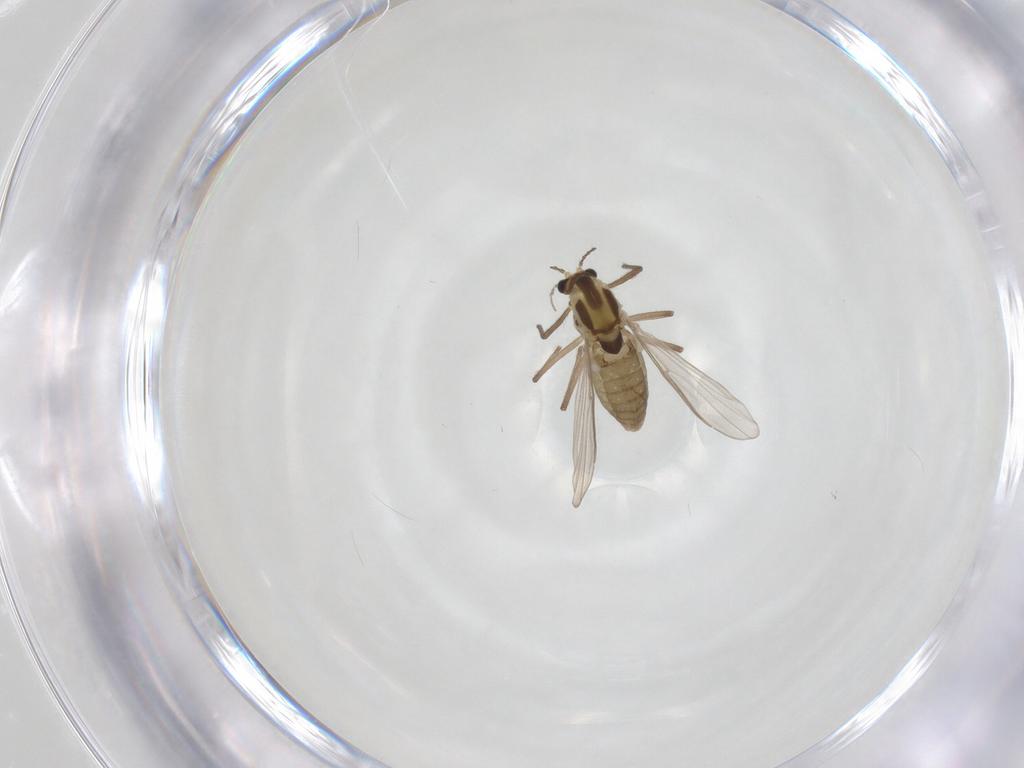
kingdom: Animalia
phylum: Arthropoda
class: Insecta
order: Diptera
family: Chironomidae
